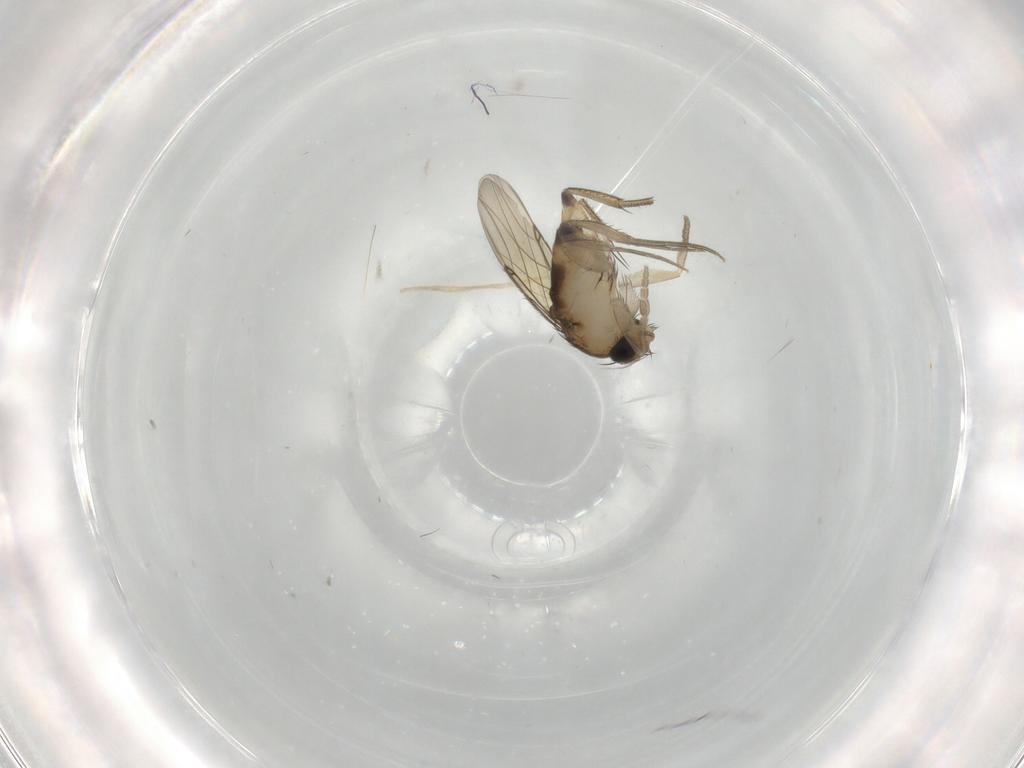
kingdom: Animalia
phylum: Arthropoda
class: Insecta
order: Diptera
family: Phoridae
